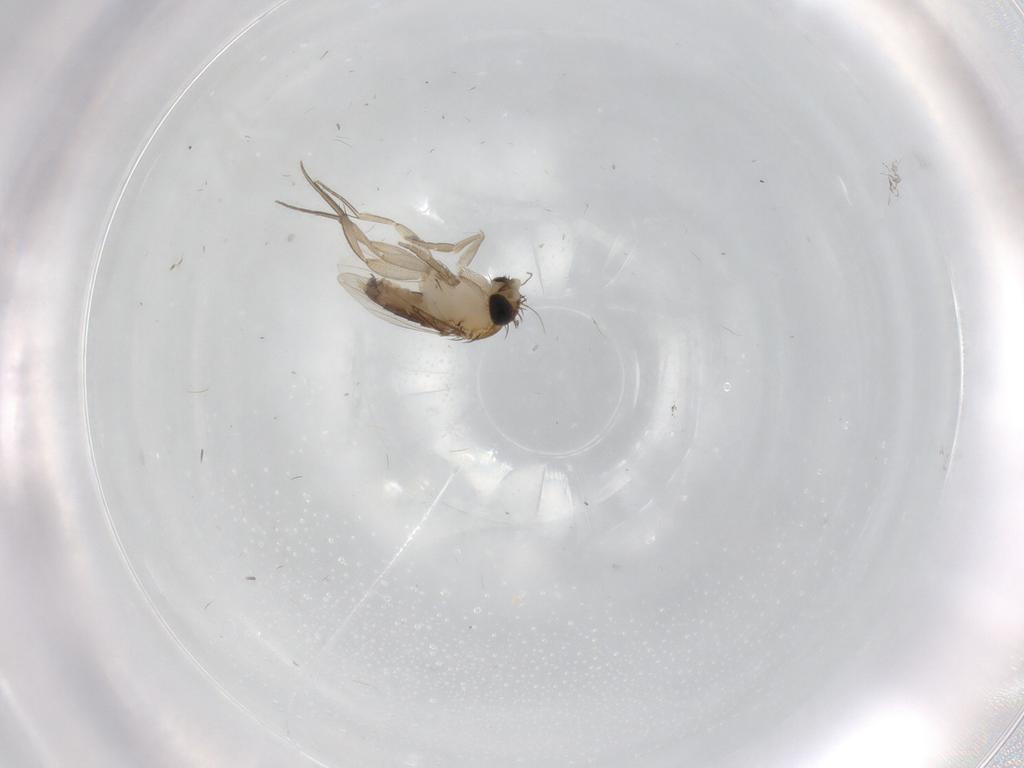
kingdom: Animalia
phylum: Arthropoda
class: Insecta
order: Diptera
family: Phoridae
